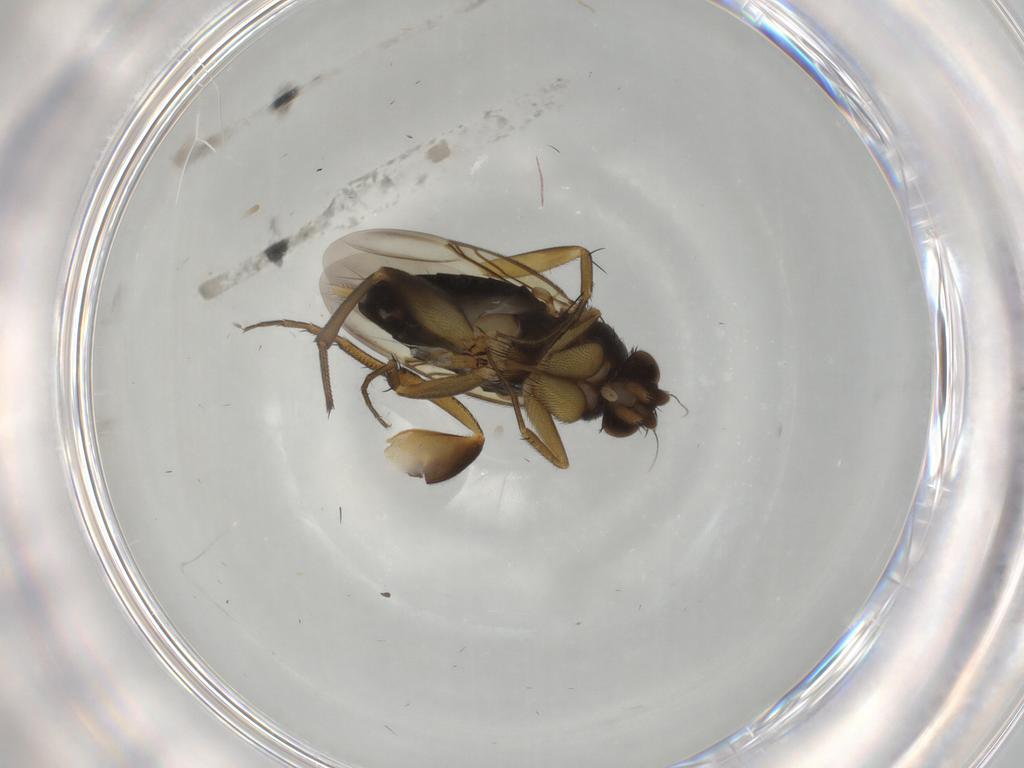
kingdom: Animalia
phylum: Arthropoda
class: Insecta
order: Diptera
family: Phoridae
